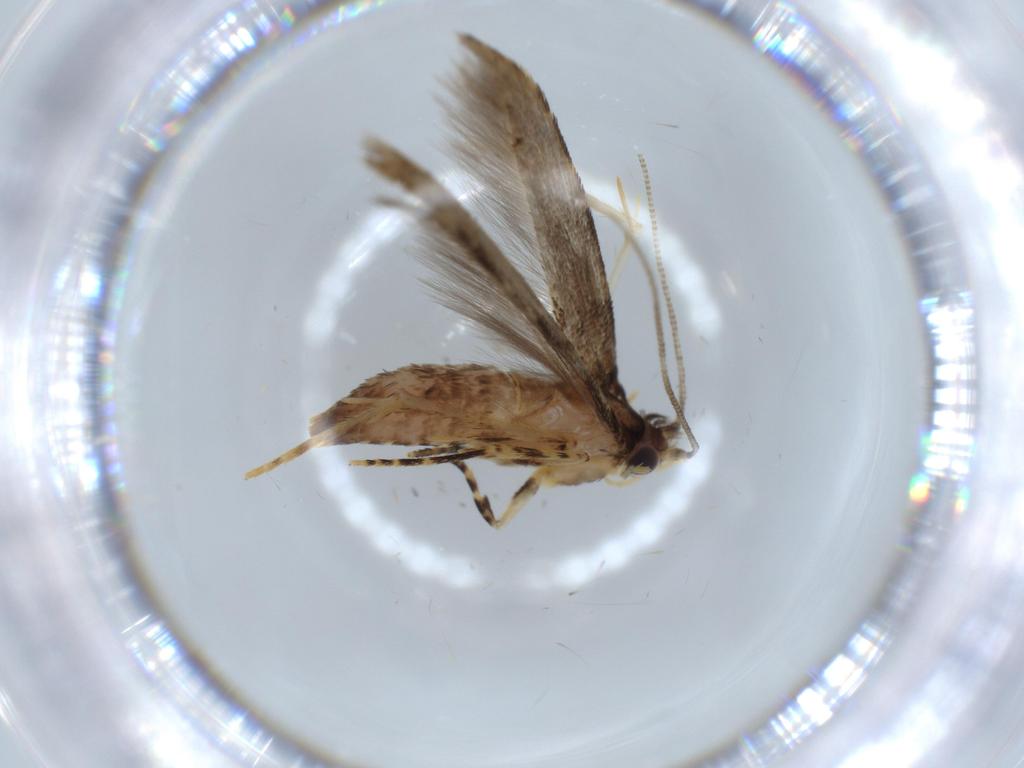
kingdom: Animalia
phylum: Arthropoda
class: Insecta
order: Lepidoptera
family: Tineidae
